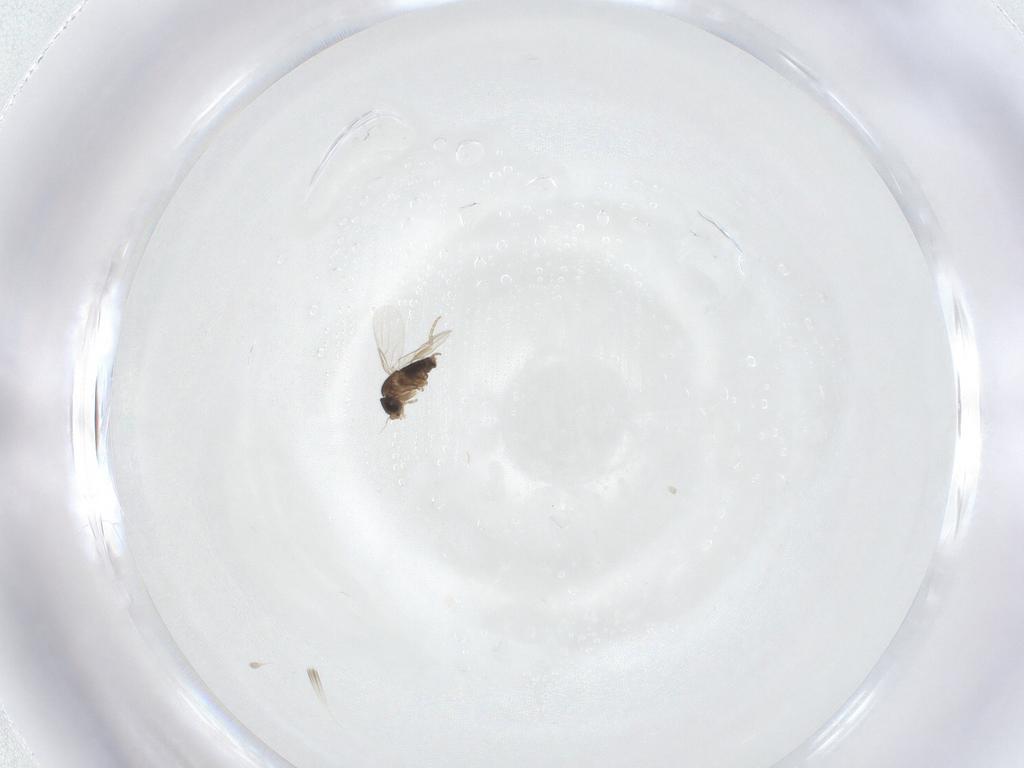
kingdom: Animalia
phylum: Arthropoda
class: Insecta
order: Diptera
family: Phoridae
